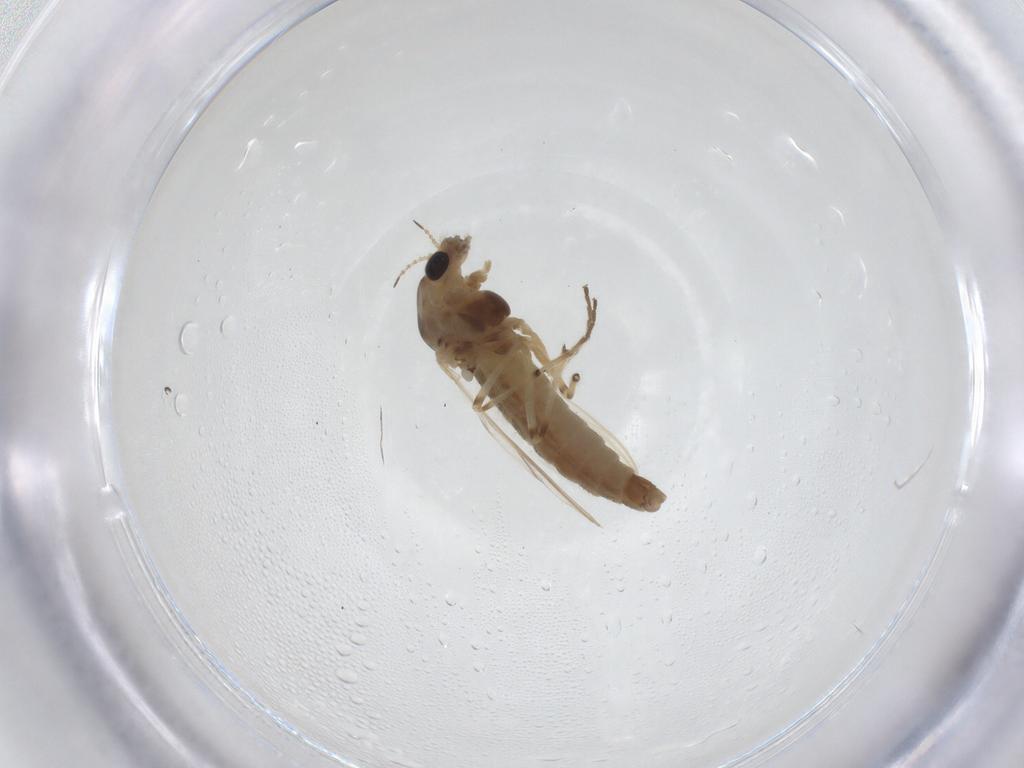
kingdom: Animalia
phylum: Arthropoda
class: Insecta
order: Diptera
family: Chironomidae
